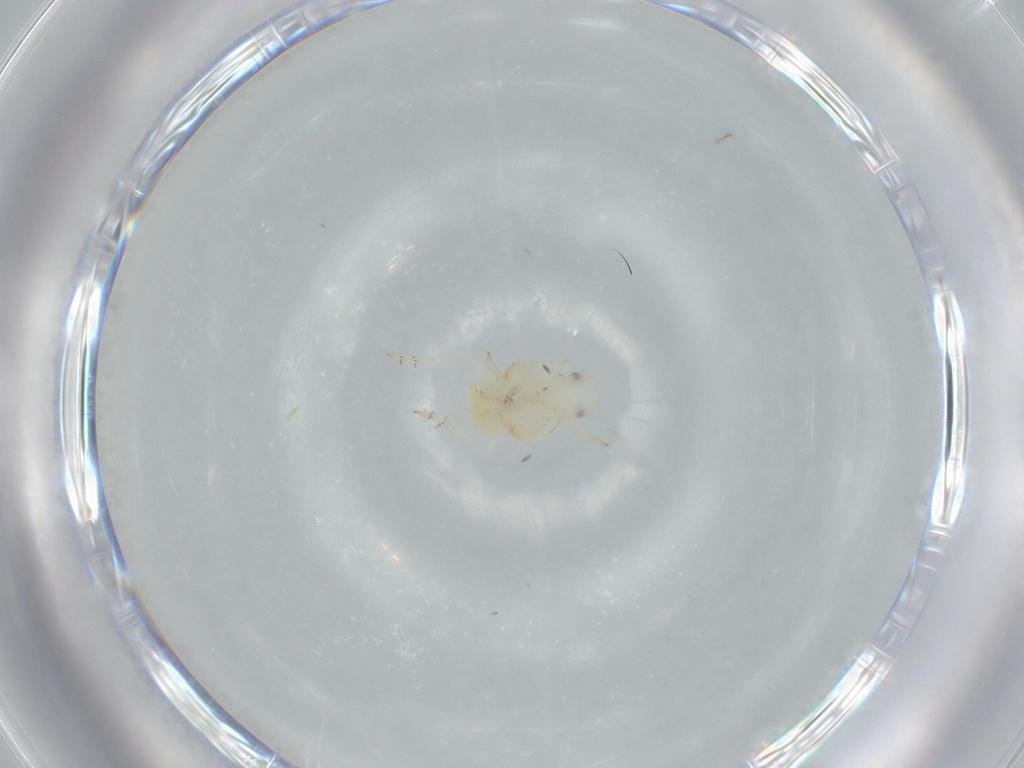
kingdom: Animalia
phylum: Arthropoda
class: Insecta
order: Hemiptera
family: Flatidae
